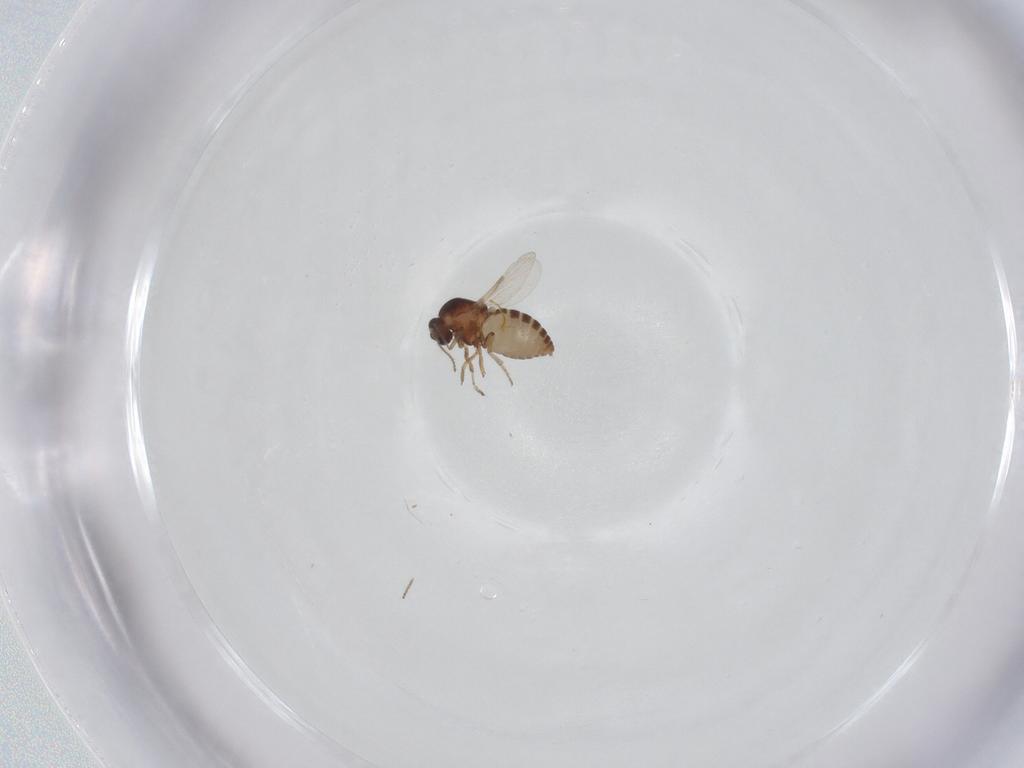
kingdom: Animalia
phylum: Arthropoda
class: Insecta
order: Diptera
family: Ceratopogonidae
